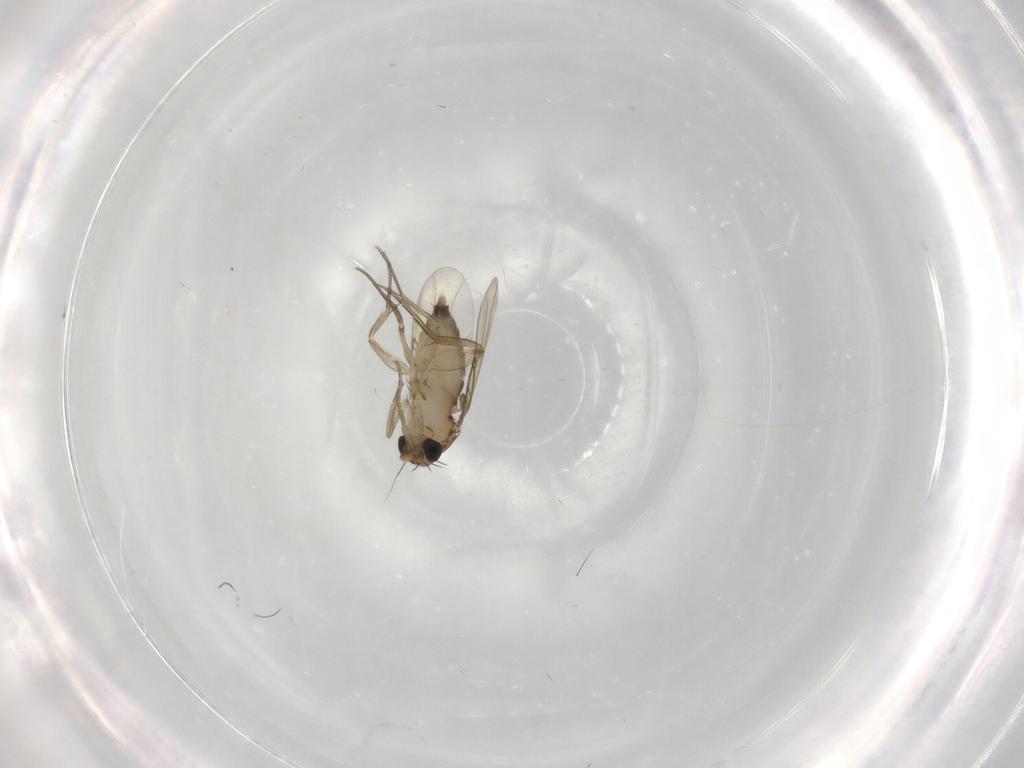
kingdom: Animalia
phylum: Arthropoda
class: Insecta
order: Diptera
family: Phoridae
